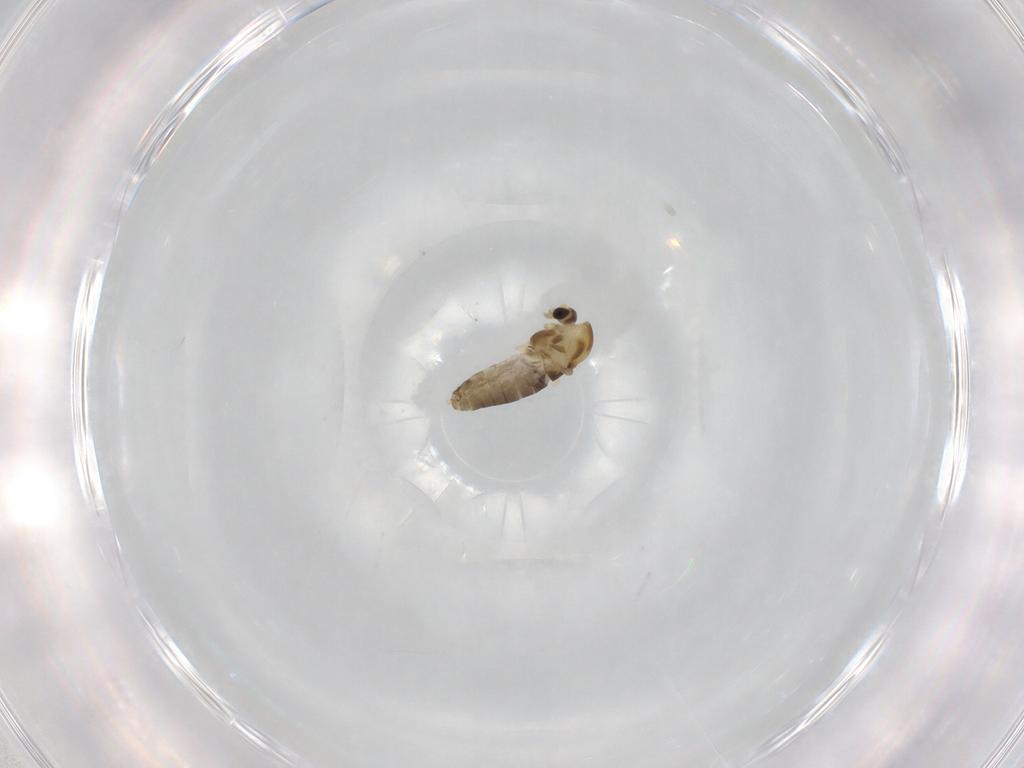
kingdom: Animalia
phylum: Arthropoda
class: Insecta
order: Diptera
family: Chironomidae
